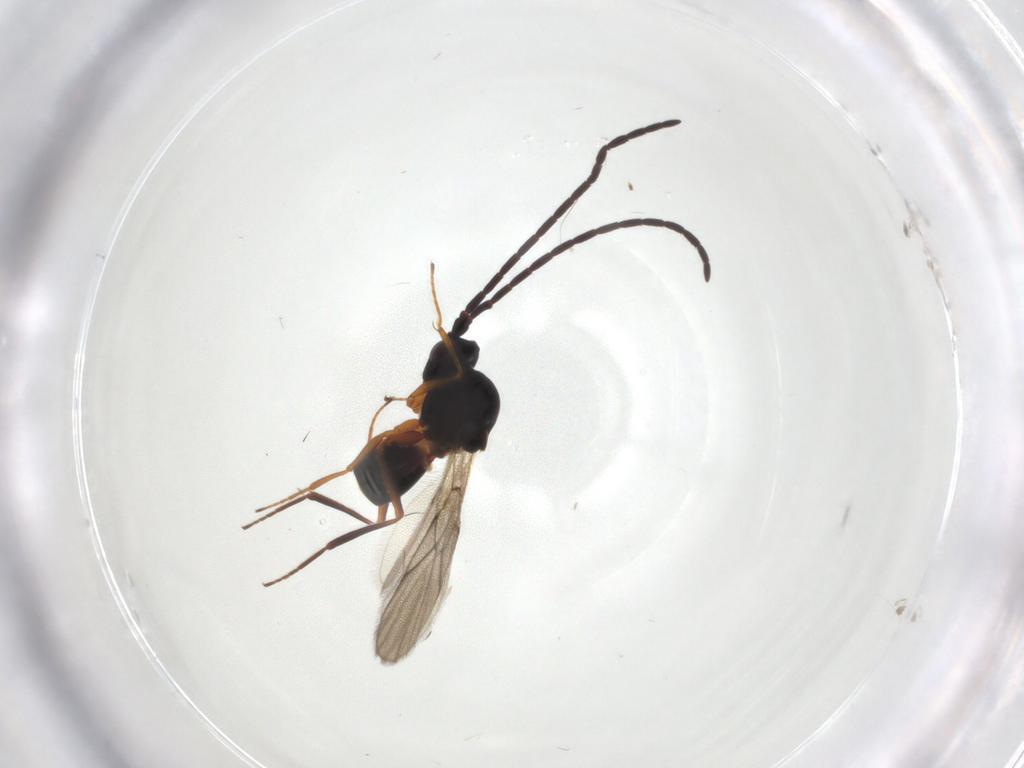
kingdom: Animalia
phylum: Arthropoda
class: Insecta
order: Hymenoptera
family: Figitidae
